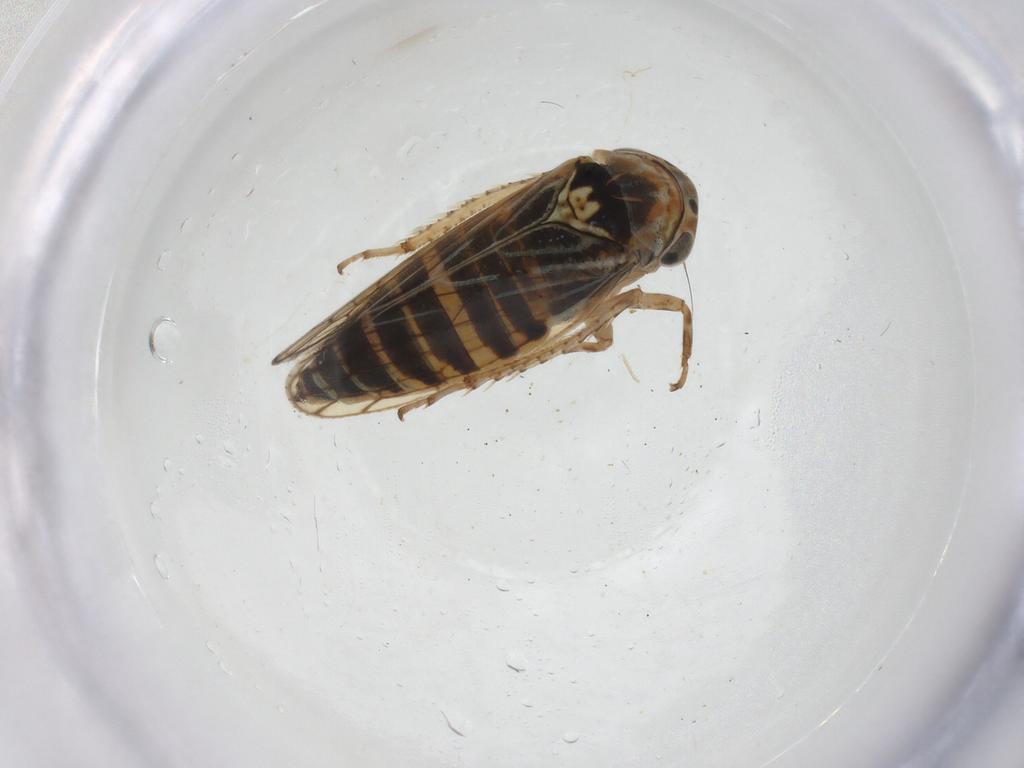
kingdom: Animalia
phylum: Arthropoda
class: Insecta
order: Hemiptera
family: Cicadellidae
